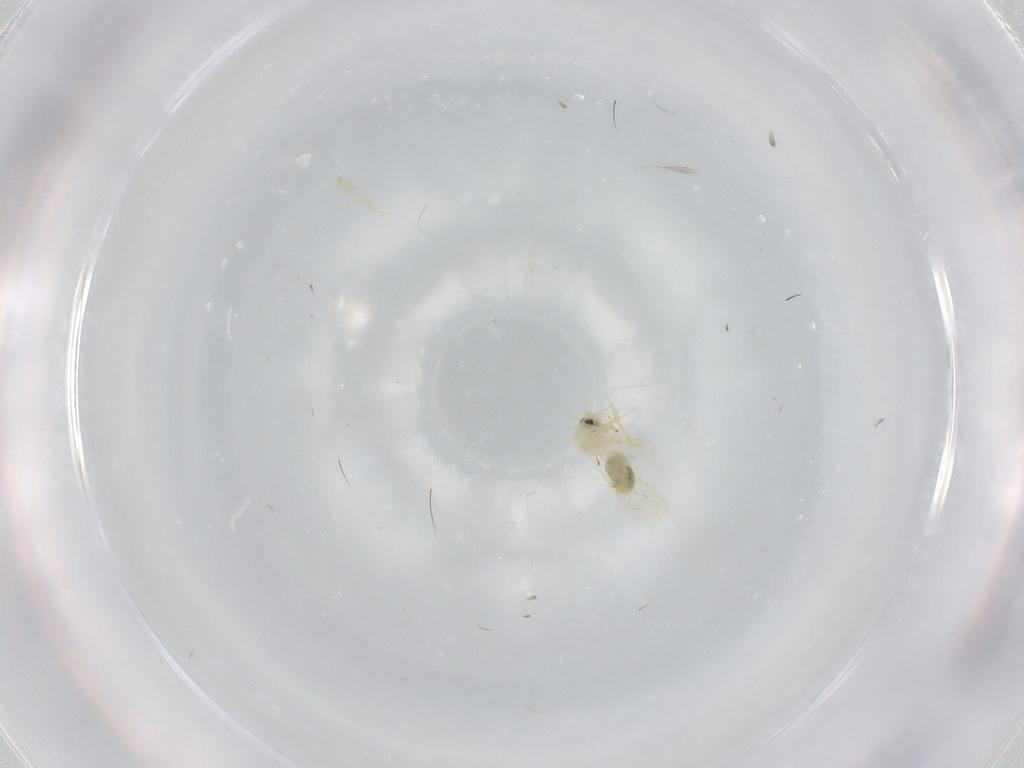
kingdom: Animalia
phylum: Arthropoda
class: Insecta
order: Hemiptera
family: Aleyrodidae
